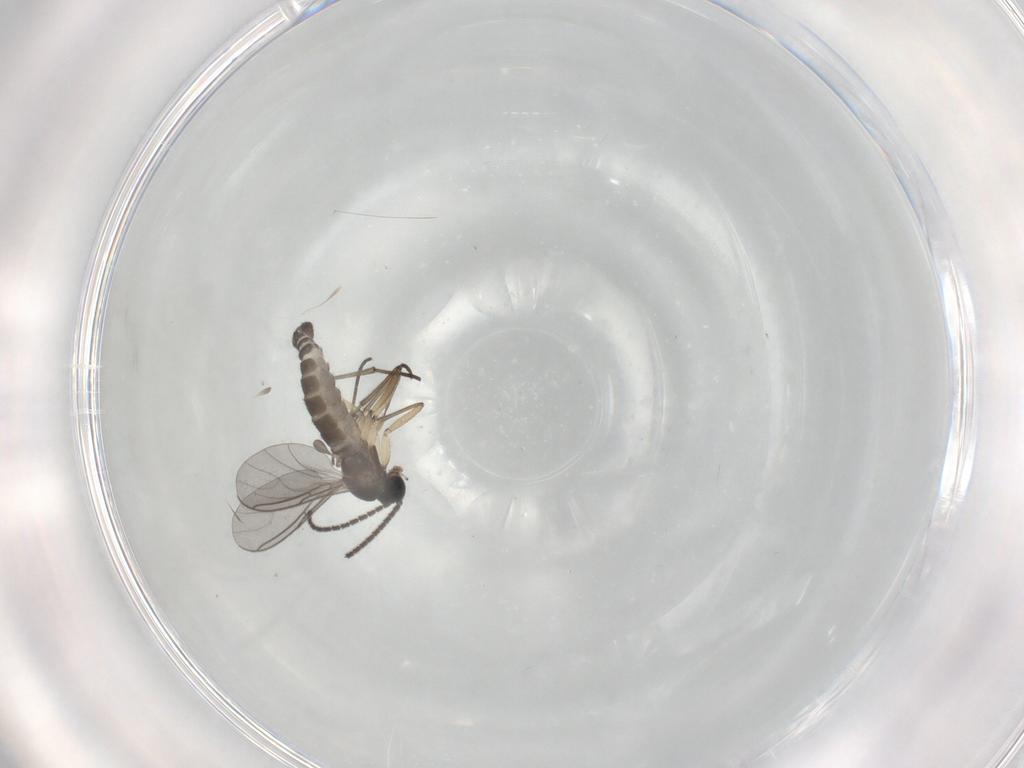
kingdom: Animalia
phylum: Arthropoda
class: Insecta
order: Diptera
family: Sciaridae
